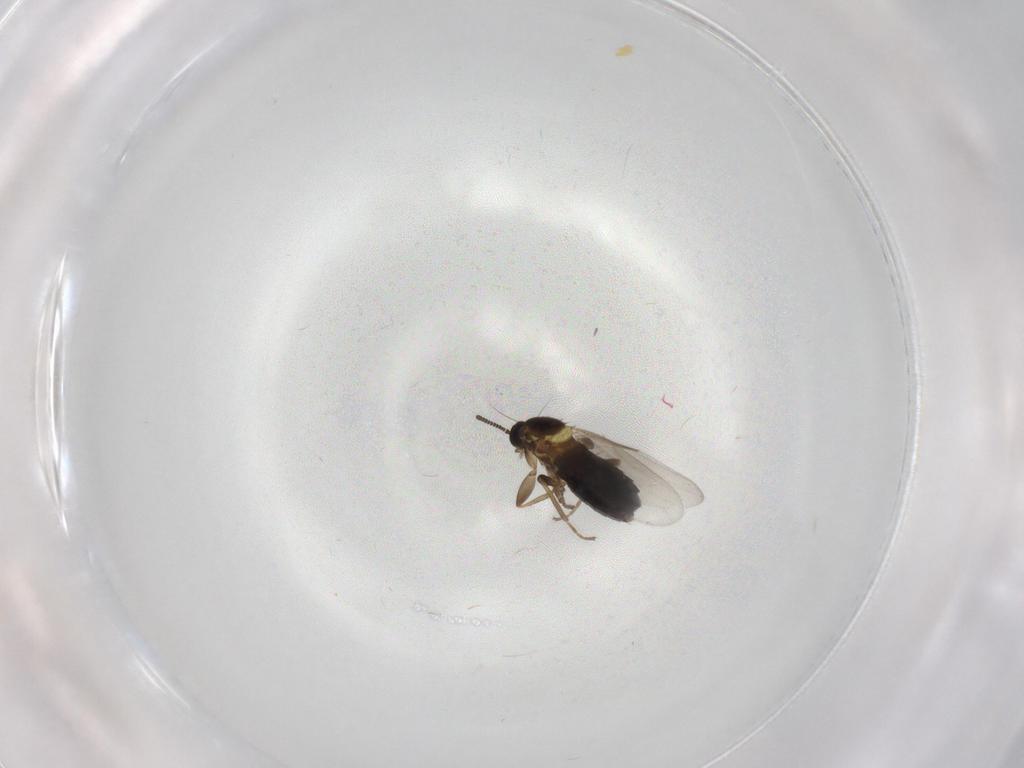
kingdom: Animalia
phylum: Arthropoda
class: Insecta
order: Diptera
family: Scatopsidae
